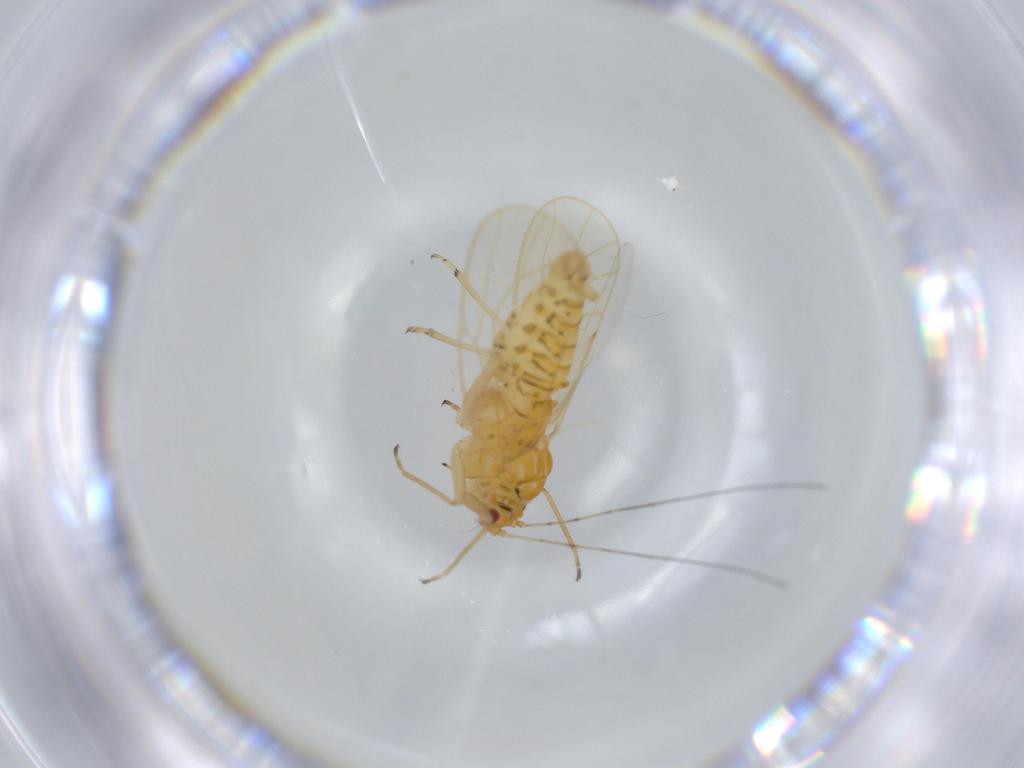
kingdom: Animalia
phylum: Arthropoda
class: Insecta
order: Hemiptera
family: Psyllidae
